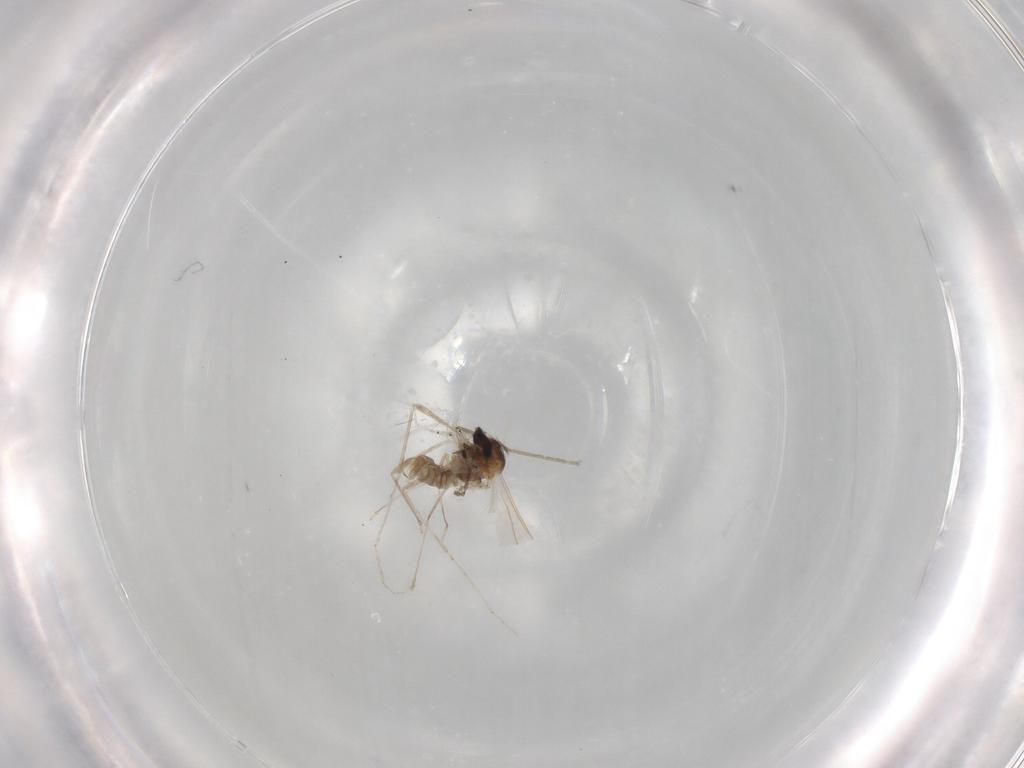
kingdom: Animalia
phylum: Arthropoda
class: Insecta
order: Diptera
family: Cecidomyiidae
